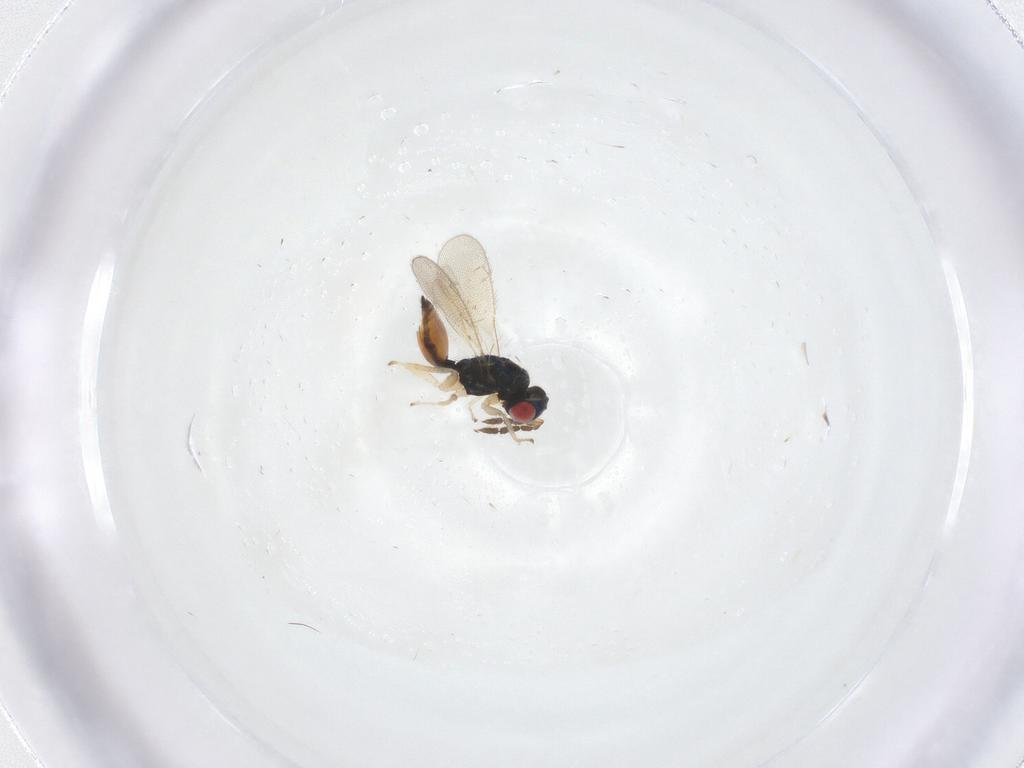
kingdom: Animalia
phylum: Arthropoda
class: Insecta
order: Hymenoptera
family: Eulophidae
